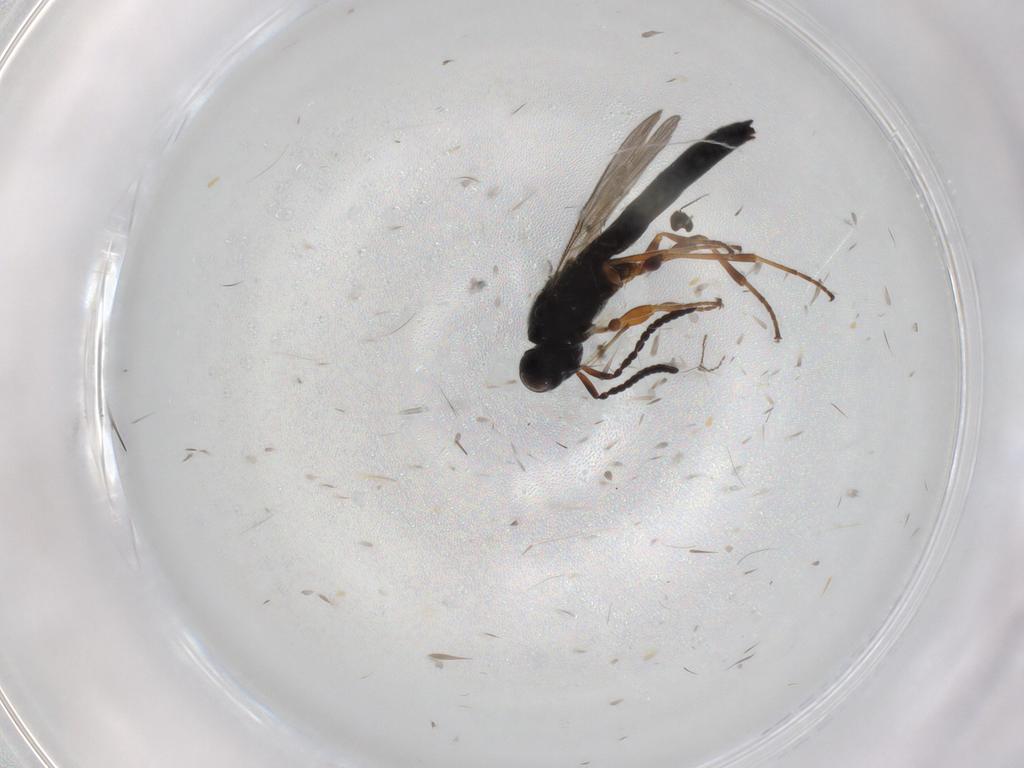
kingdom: Animalia
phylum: Arthropoda
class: Insecta
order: Hymenoptera
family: Scelionidae
